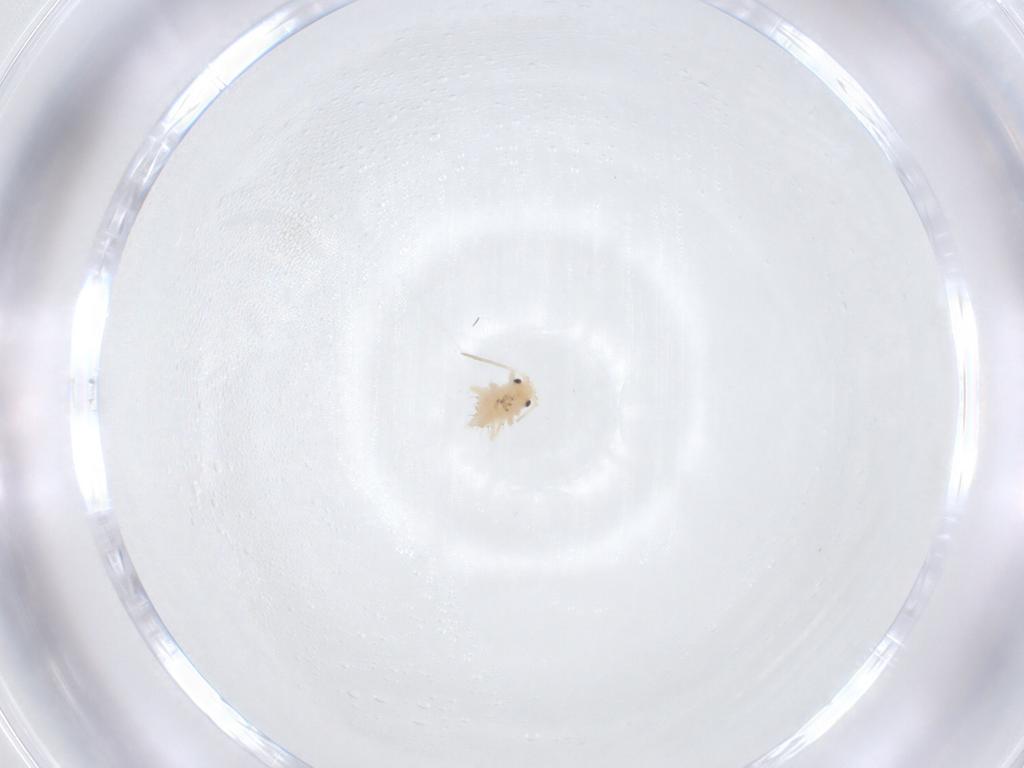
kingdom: Animalia
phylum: Arthropoda
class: Insecta
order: Hemiptera
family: Aphididae
